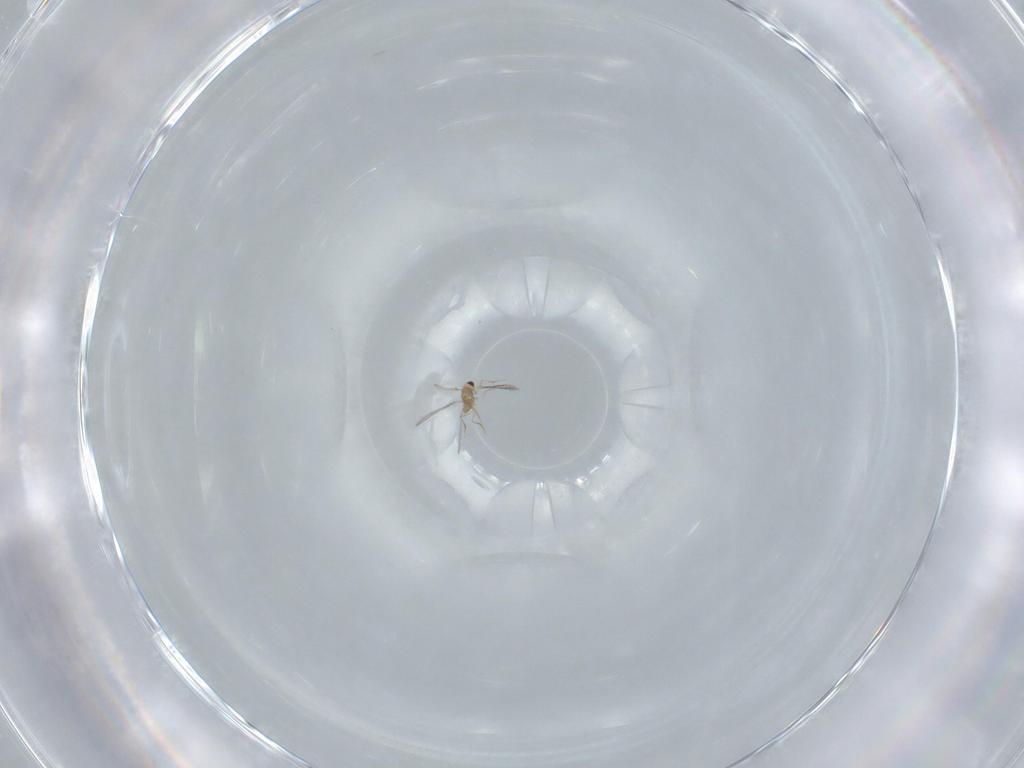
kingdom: Animalia
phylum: Arthropoda
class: Insecta
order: Hymenoptera
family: Mymaridae
